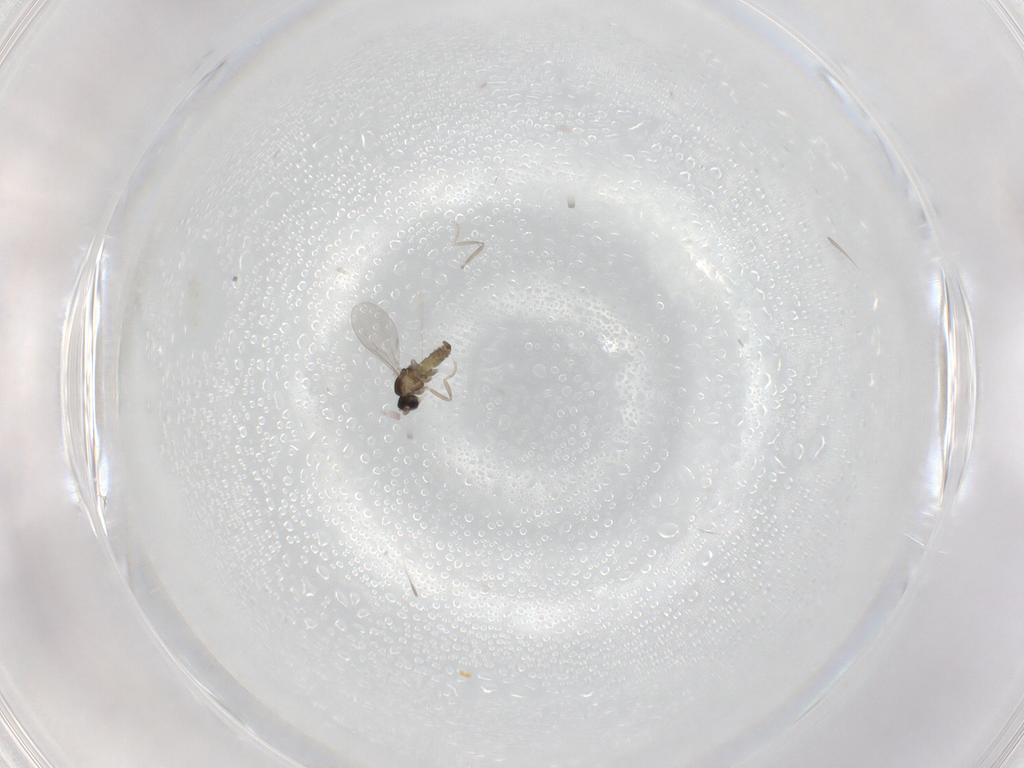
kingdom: Animalia
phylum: Arthropoda
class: Insecta
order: Diptera
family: Cecidomyiidae
